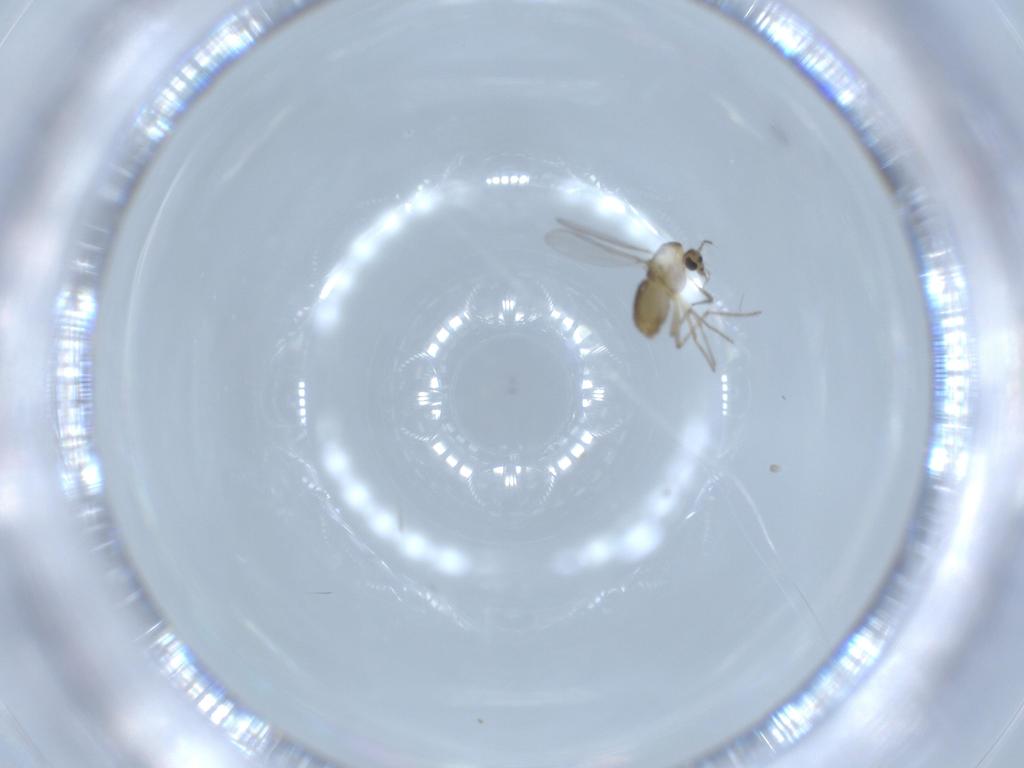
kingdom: Animalia
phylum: Arthropoda
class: Insecta
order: Diptera
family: Chironomidae
